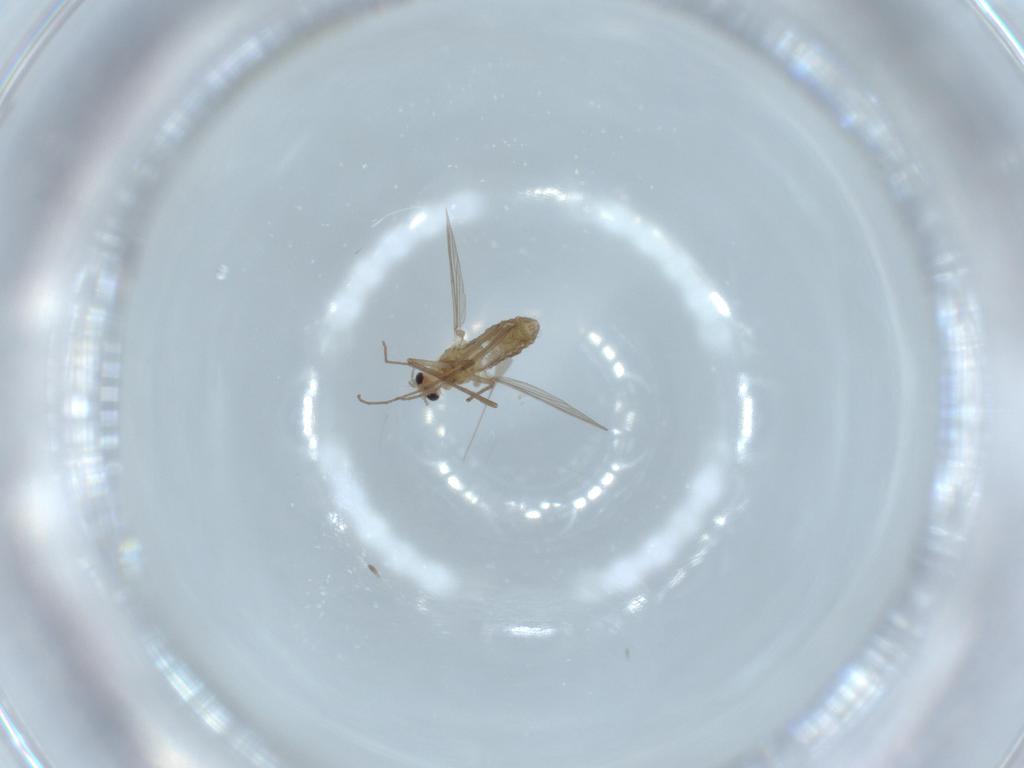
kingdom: Animalia
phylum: Arthropoda
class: Insecta
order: Diptera
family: Chironomidae
